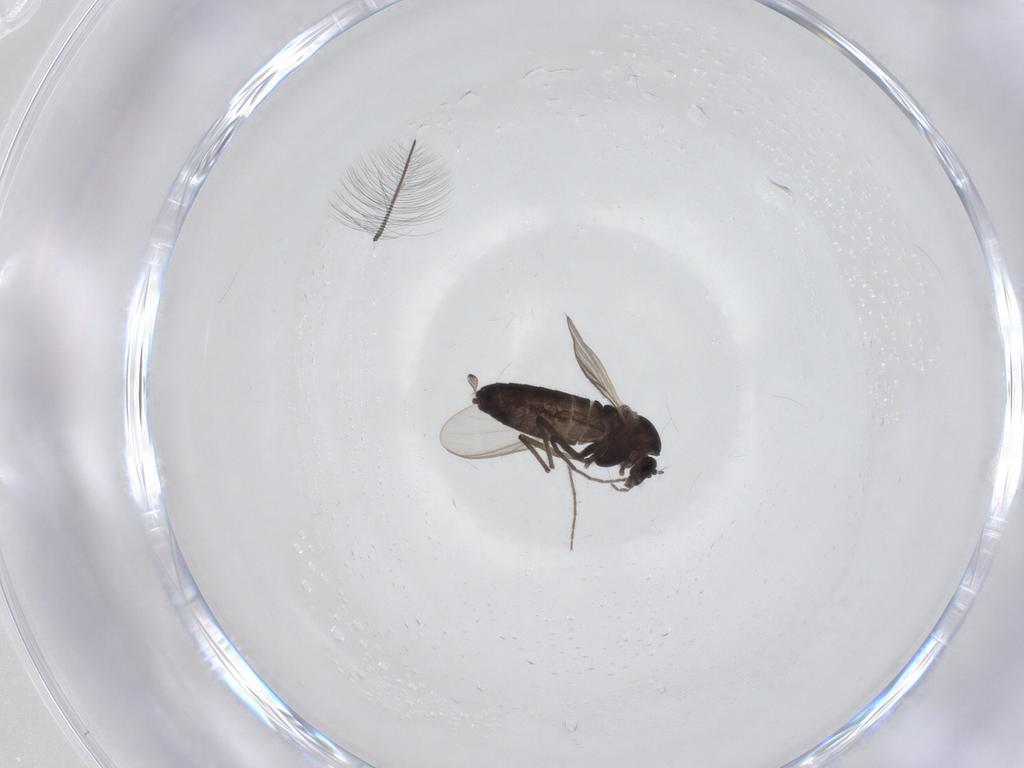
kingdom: Animalia
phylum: Arthropoda
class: Insecta
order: Diptera
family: Chironomidae
